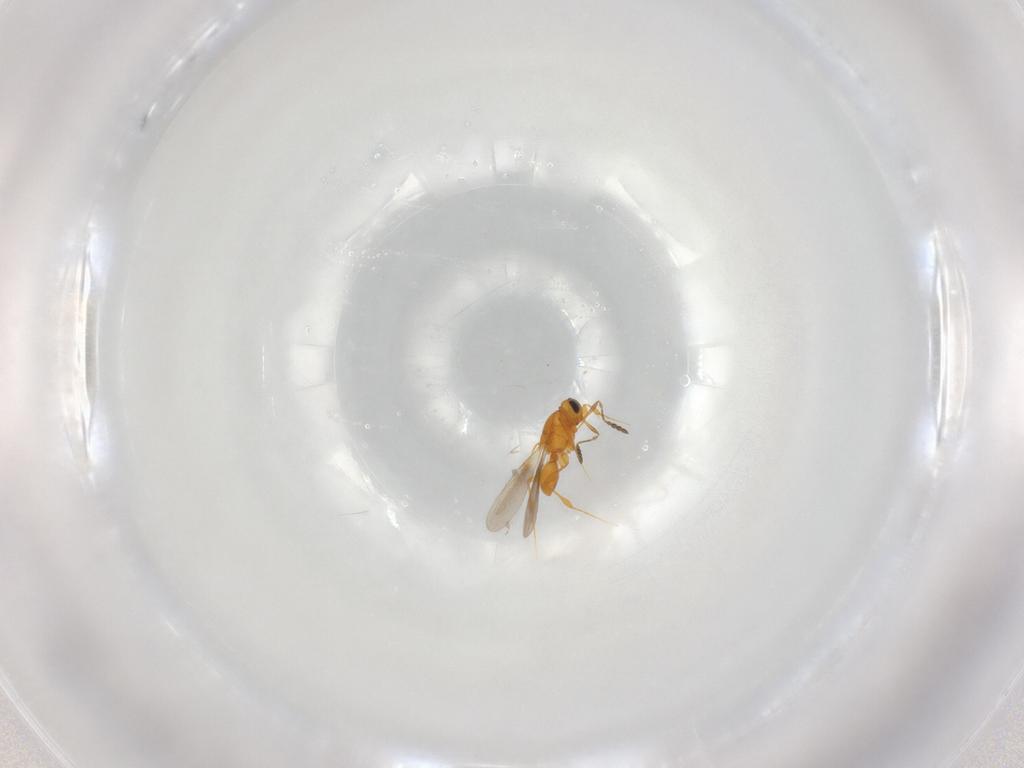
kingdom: Animalia
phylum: Arthropoda
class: Insecta
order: Hymenoptera
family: Platygastridae
